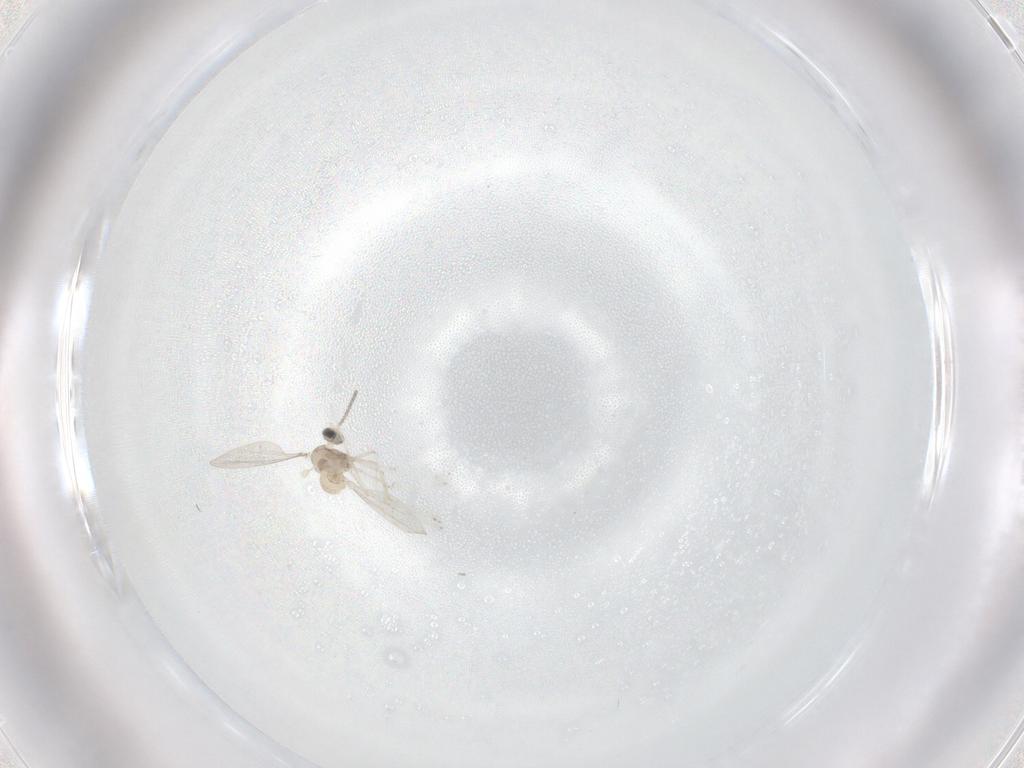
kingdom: Animalia
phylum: Arthropoda
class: Insecta
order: Diptera
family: Cecidomyiidae
